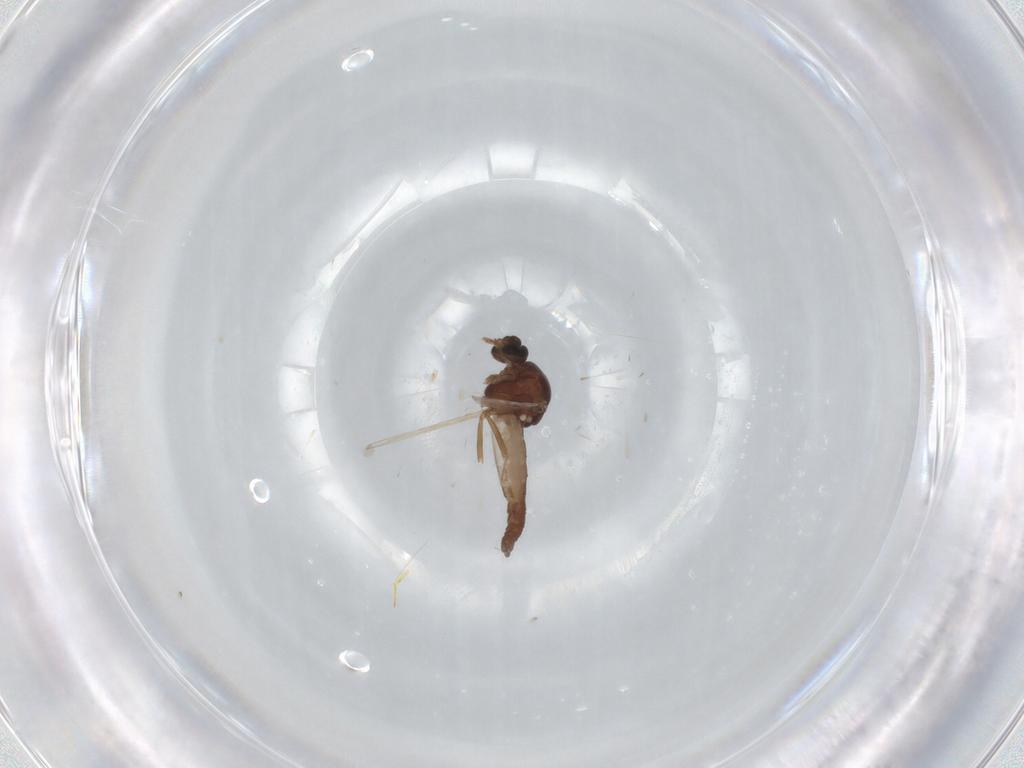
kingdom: Animalia
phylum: Arthropoda
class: Insecta
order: Diptera
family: Ceratopogonidae
